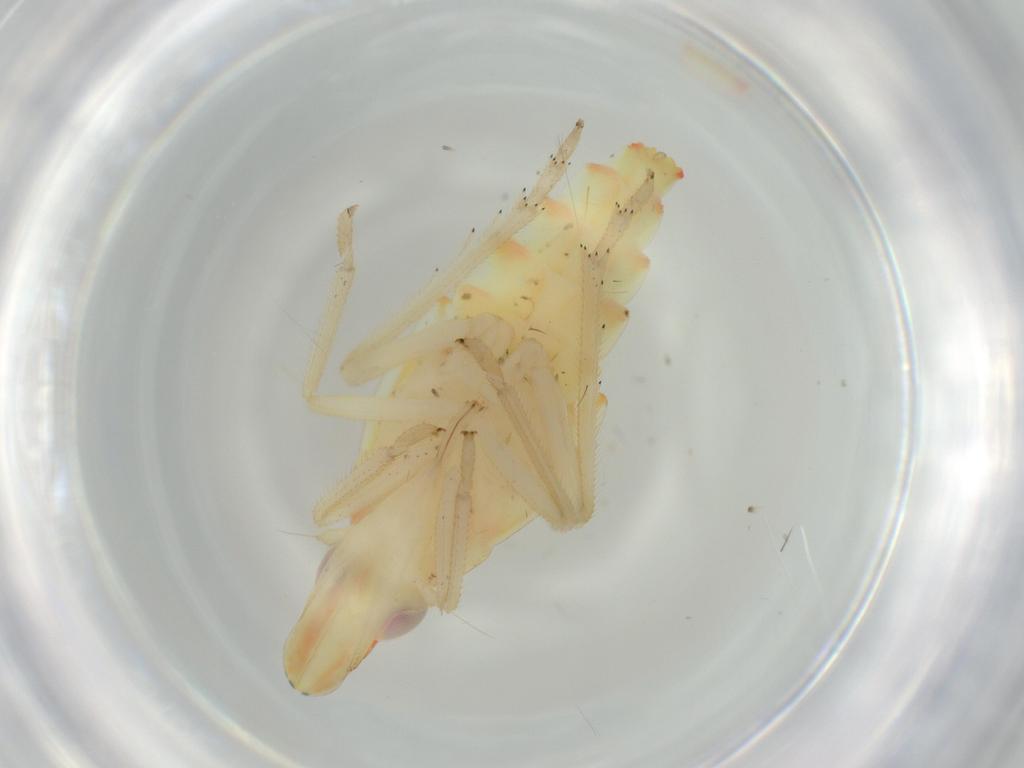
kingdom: Animalia
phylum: Arthropoda
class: Insecta
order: Hemiptera
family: Tropiduchidae
